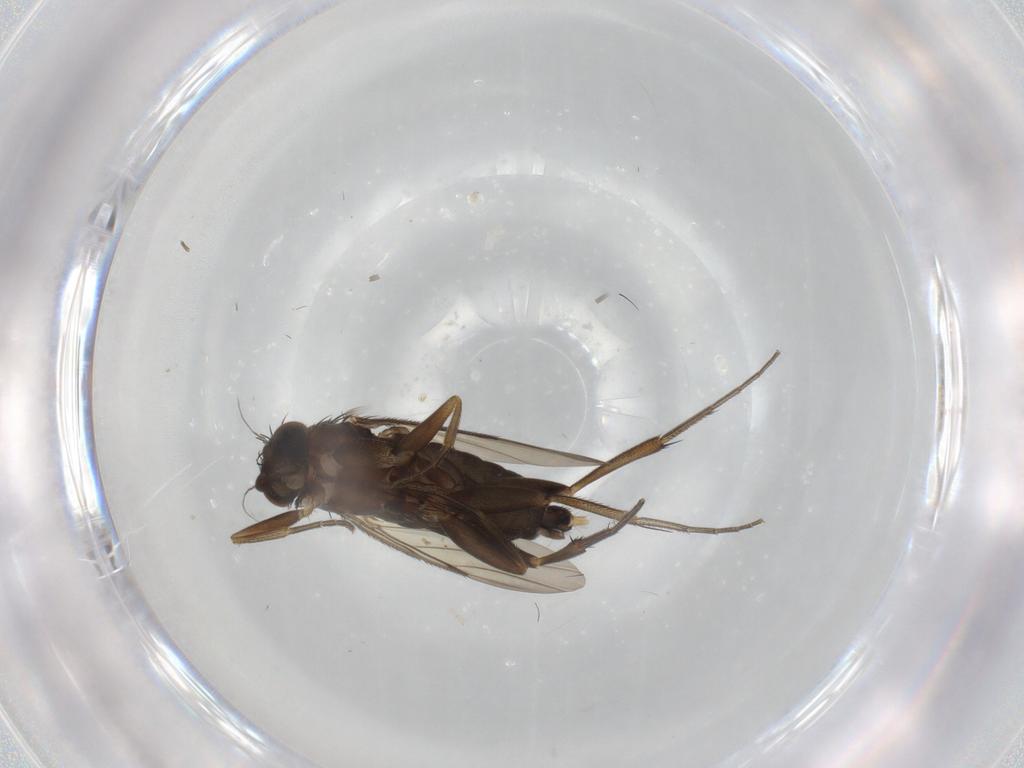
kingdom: Animalia
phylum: Arthropoda
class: Insecta
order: Diptera
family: Phoridae
